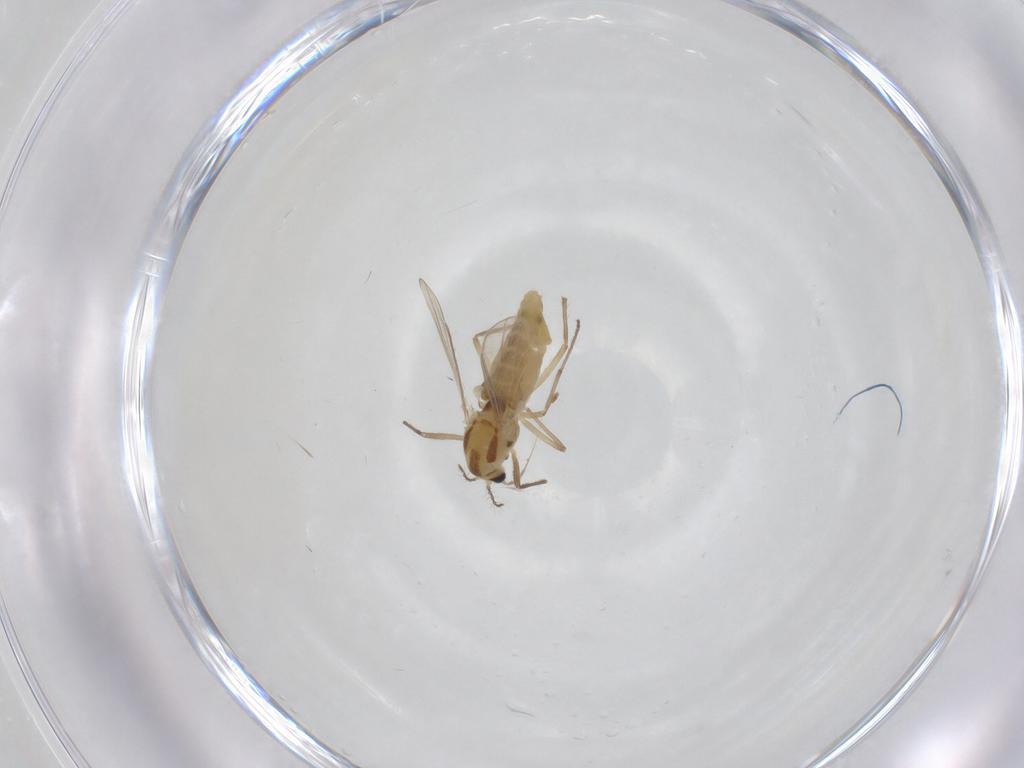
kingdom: Animalia
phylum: Arthropoda
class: Insecta
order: Diptera
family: Chironomidae
